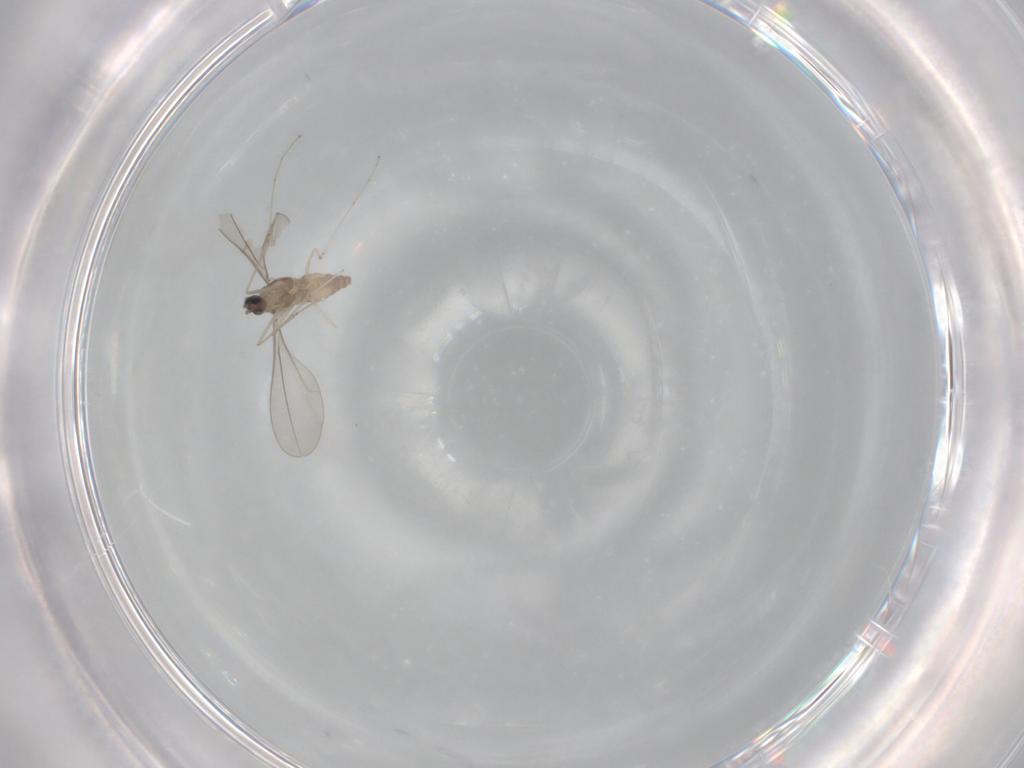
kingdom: Animalia
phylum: Arthropoda
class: Insecta
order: Diptera
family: Cecidomyiidae
